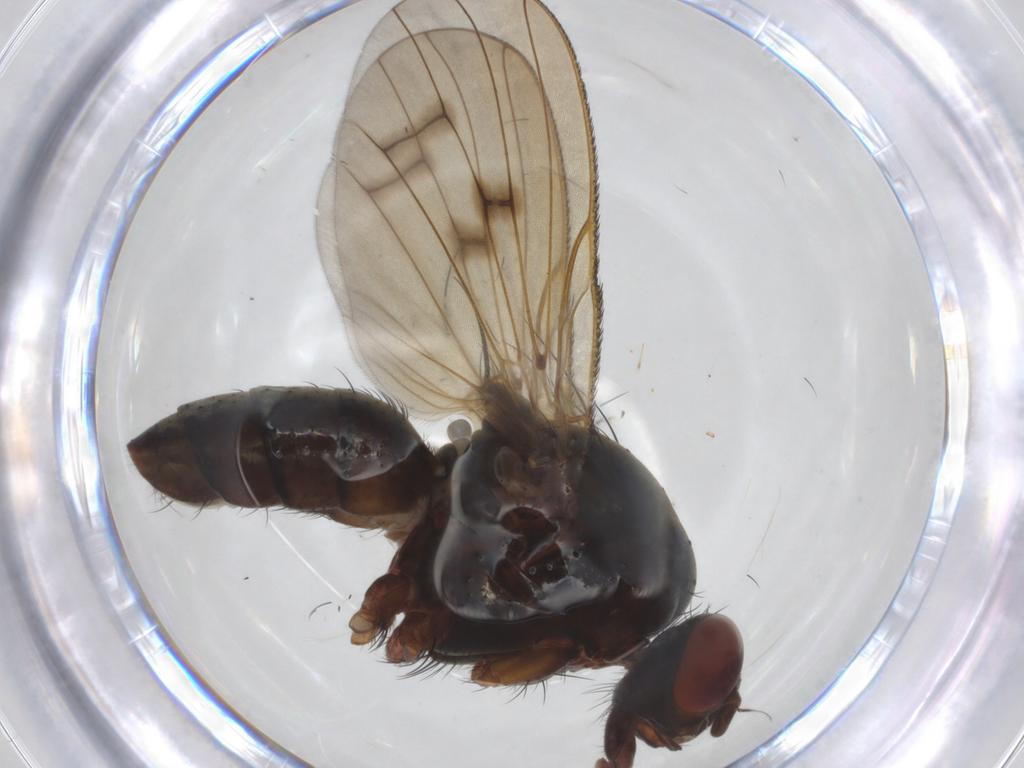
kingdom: Animalia
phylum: Arthropoda
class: Insecta
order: Diptera
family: Anthomyiidae
